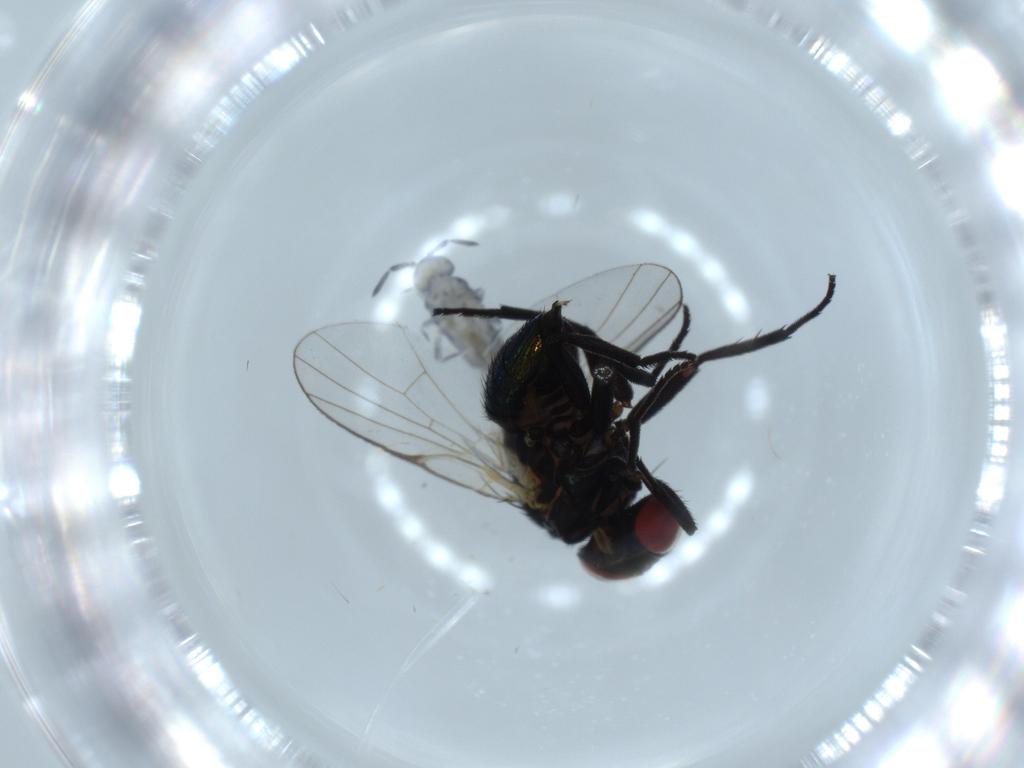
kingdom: Animalia
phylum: Arthropoda
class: Insecta
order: Diptera
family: Agromyzidae
